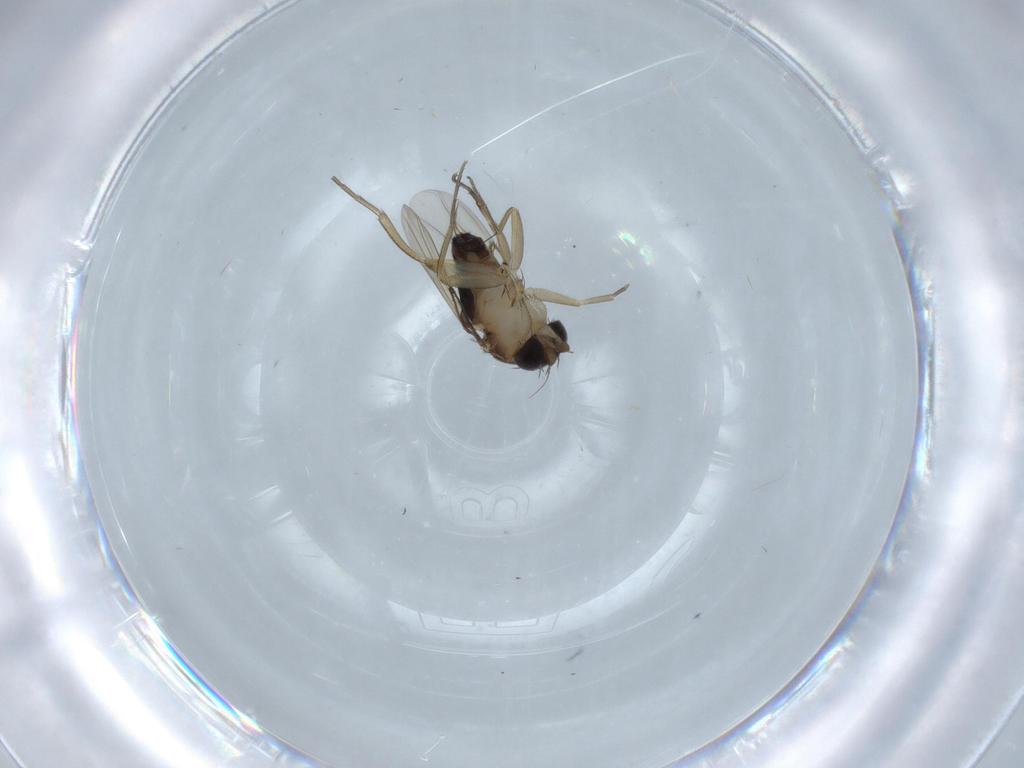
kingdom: Animalia
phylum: Arthropoda
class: Insecta
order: Diptera
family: Phoridae
